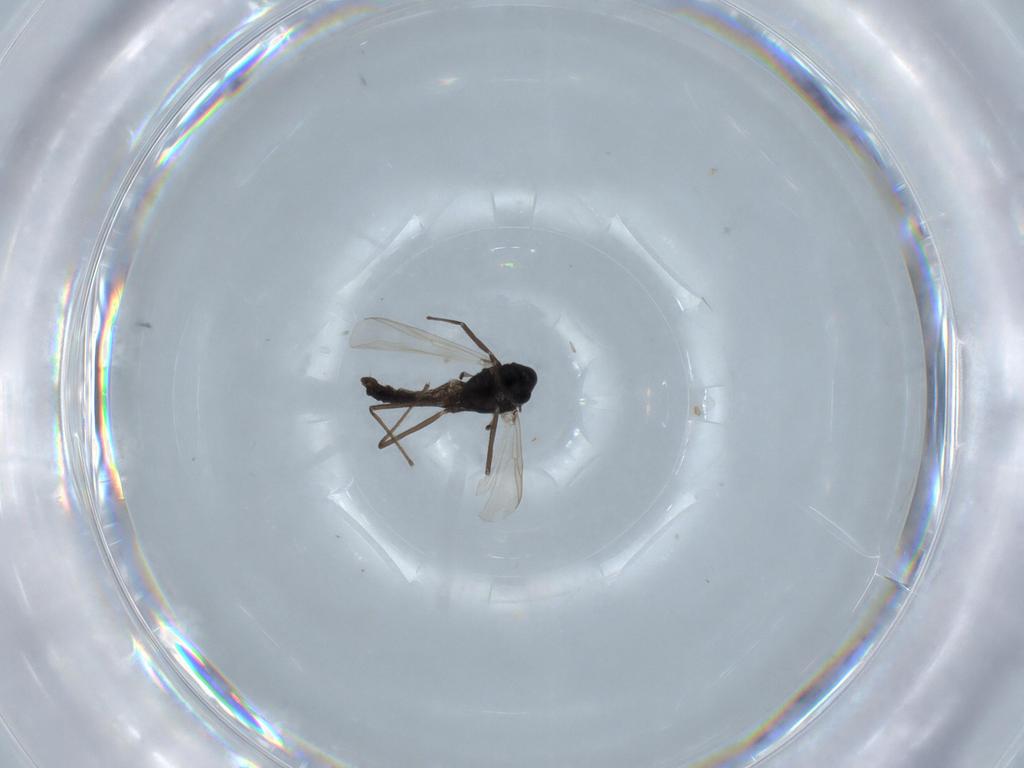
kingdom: Animalia
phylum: Arthropoda
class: Insecta
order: Diptera
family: Chironomidae
